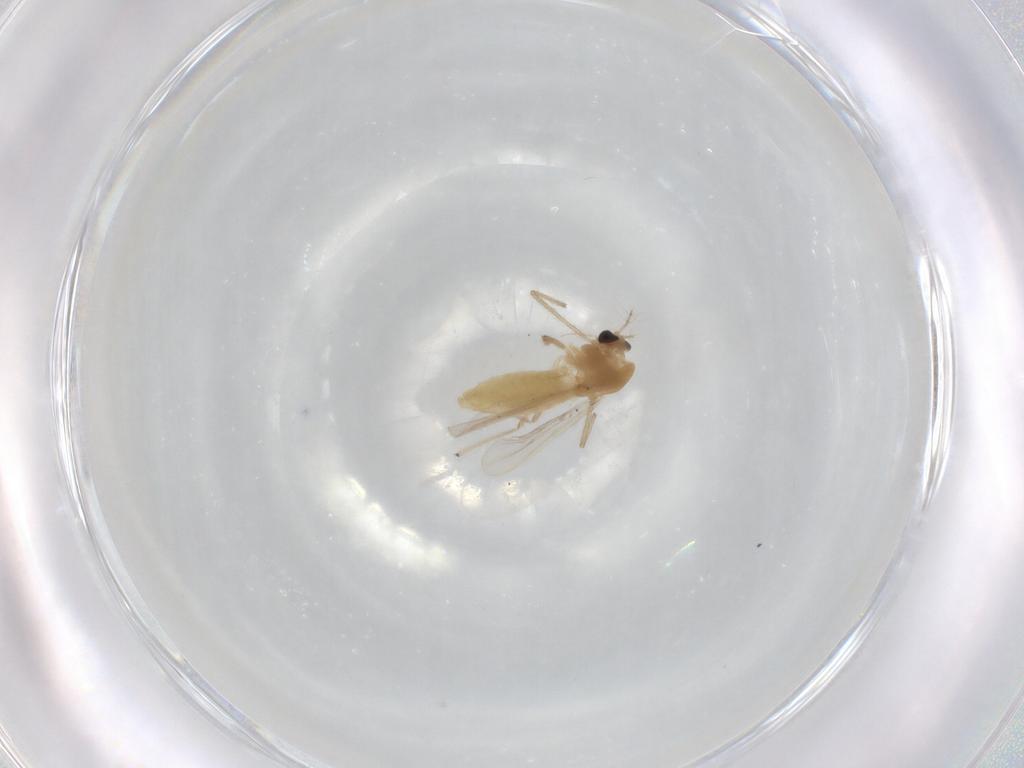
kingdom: Animalia
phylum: Arthropoda
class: Insecta
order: Diptera
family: Chironomidae
